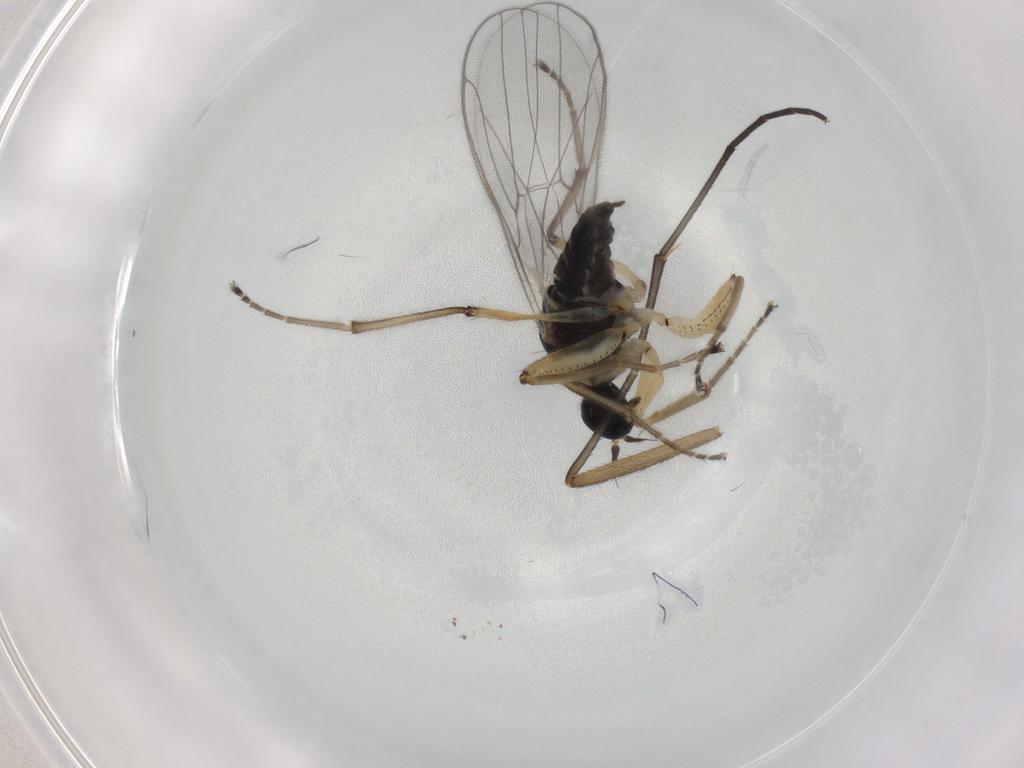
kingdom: Animalia
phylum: Arthropoda
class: Insecta
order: Diptera
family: Hybotidae
